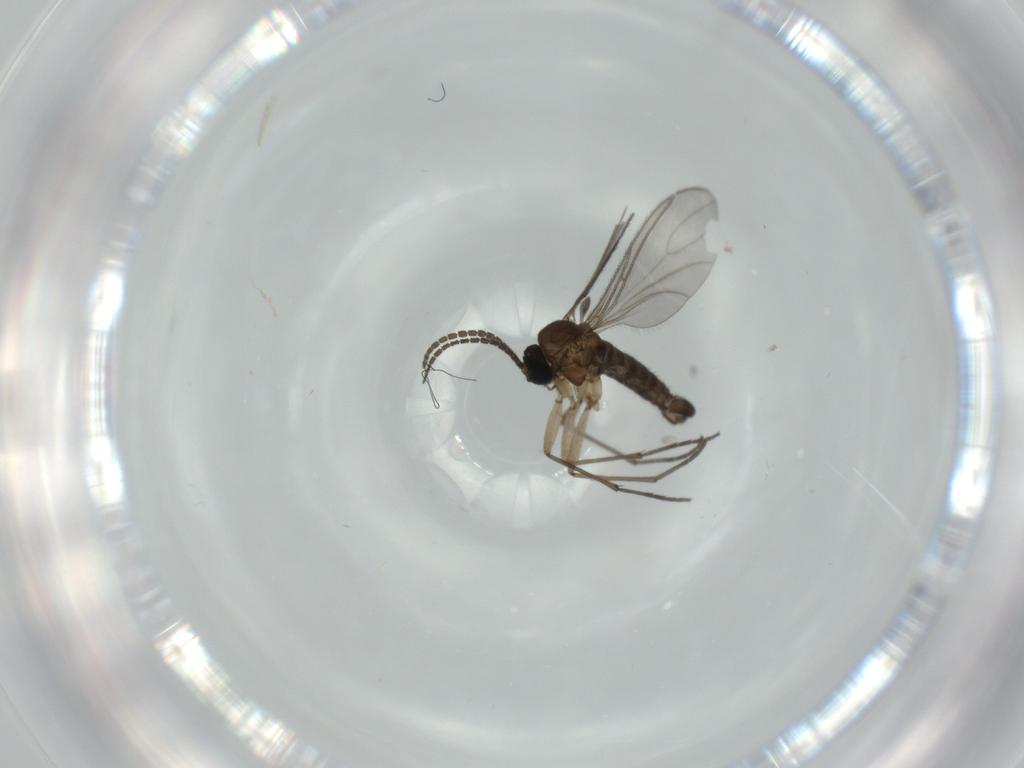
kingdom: Animalia
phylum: Arthropoda
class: Insecta
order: Diptera
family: Sciaridae
